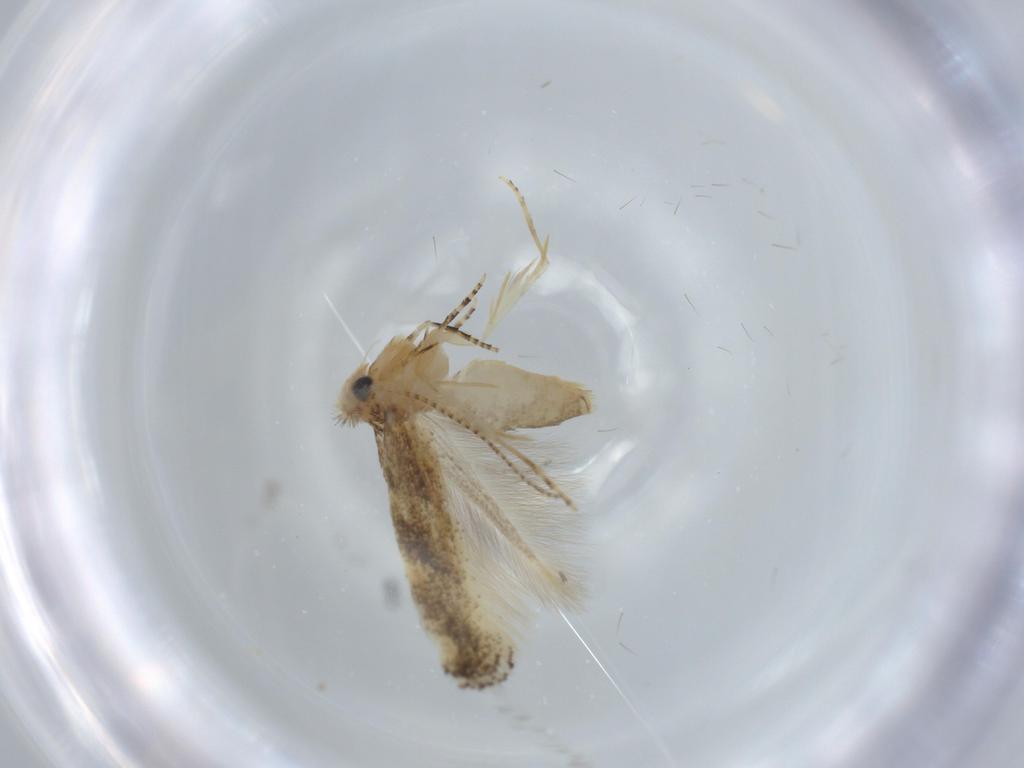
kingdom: Animalia
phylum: Arthropoda
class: Insecta
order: Lepidoptera
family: Bucculatricidae
